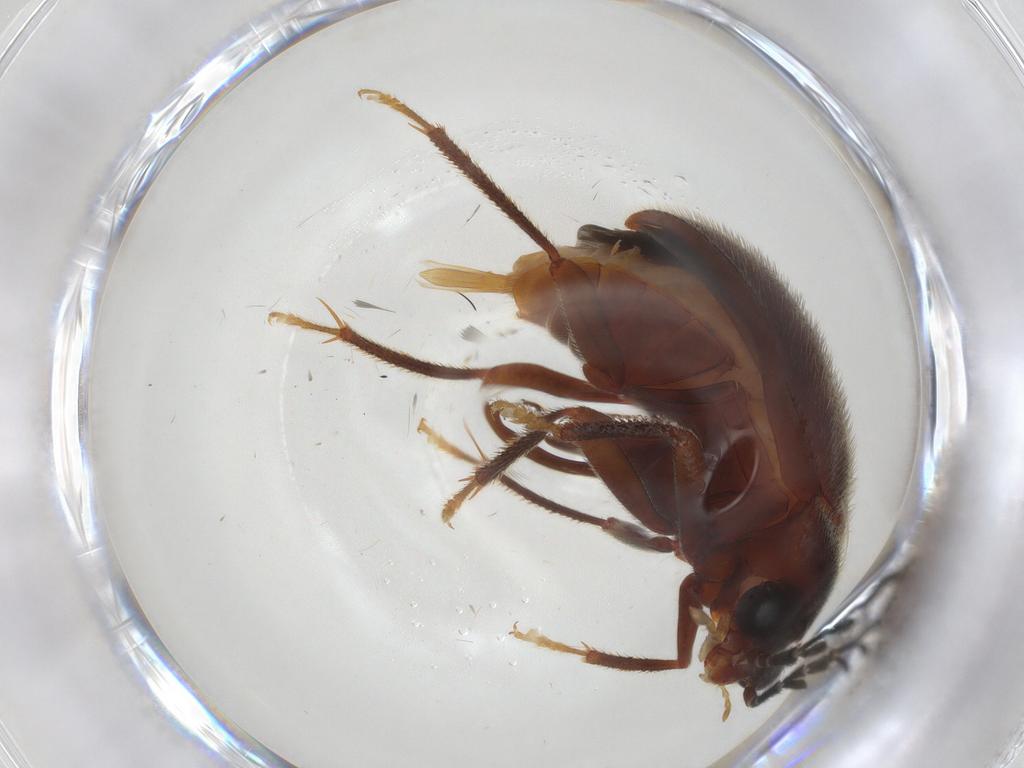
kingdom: Animalia
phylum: Arthropoda
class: Insecta
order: Coleoptera
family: Ptilodactylidae
